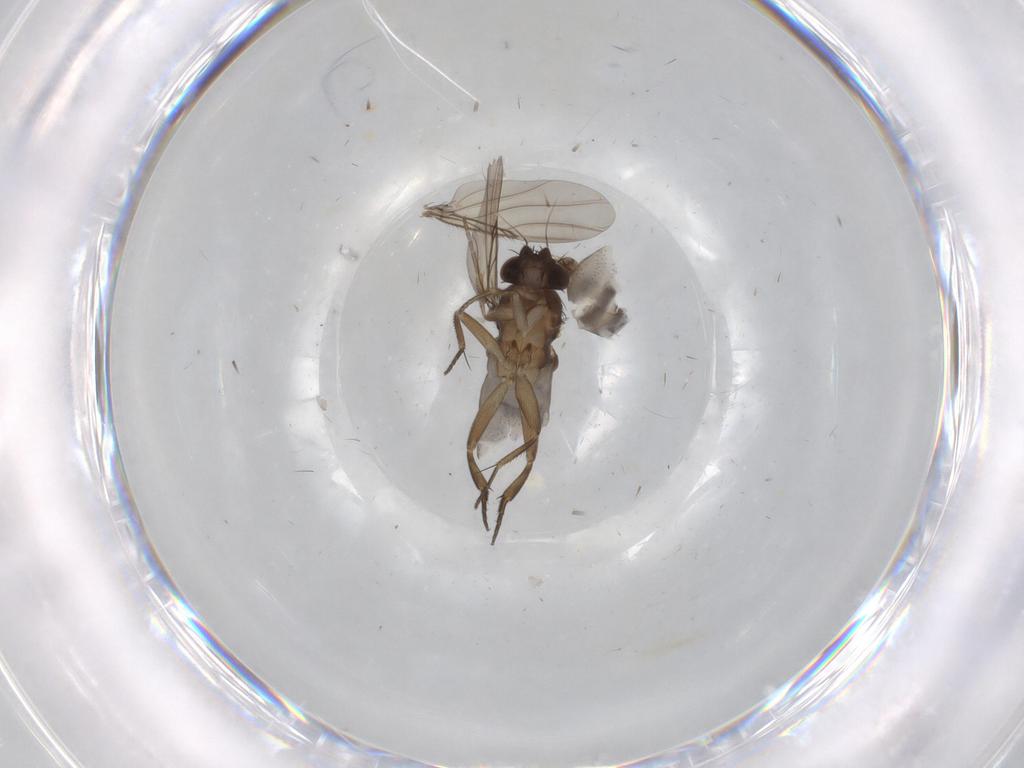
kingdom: Animalia
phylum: Arthropoda
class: Insecta
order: Diptera
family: Phoridae
